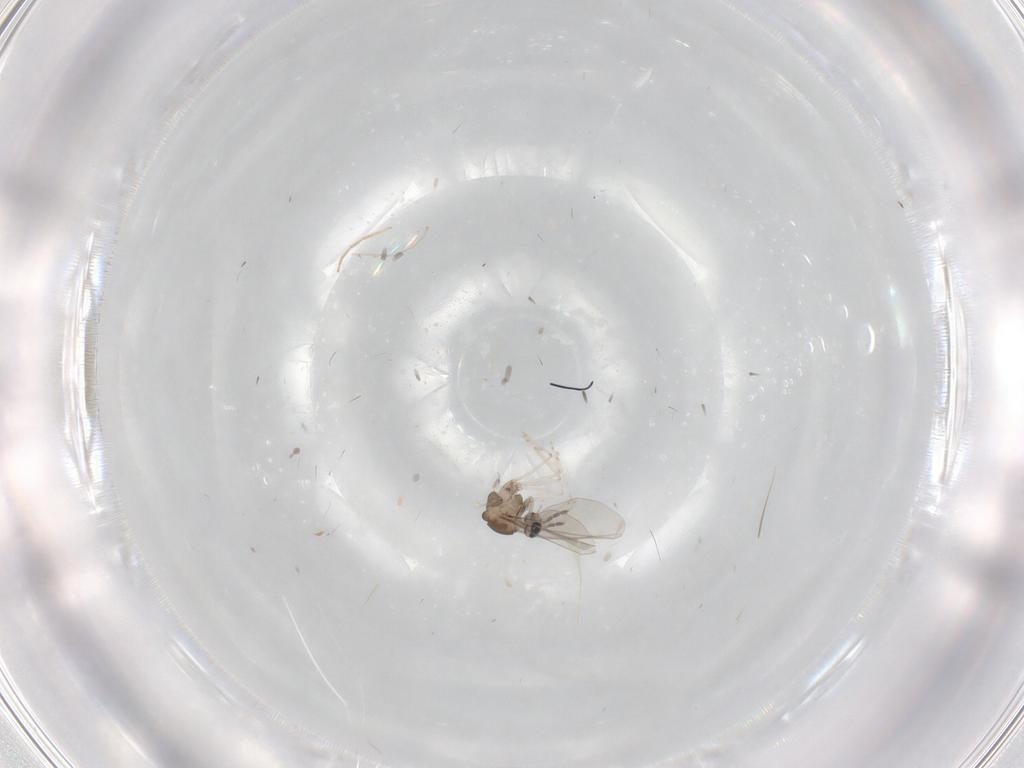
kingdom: Animalia
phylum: Arthropoda
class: Insecta
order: Diptera
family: Cecidomyiidae
